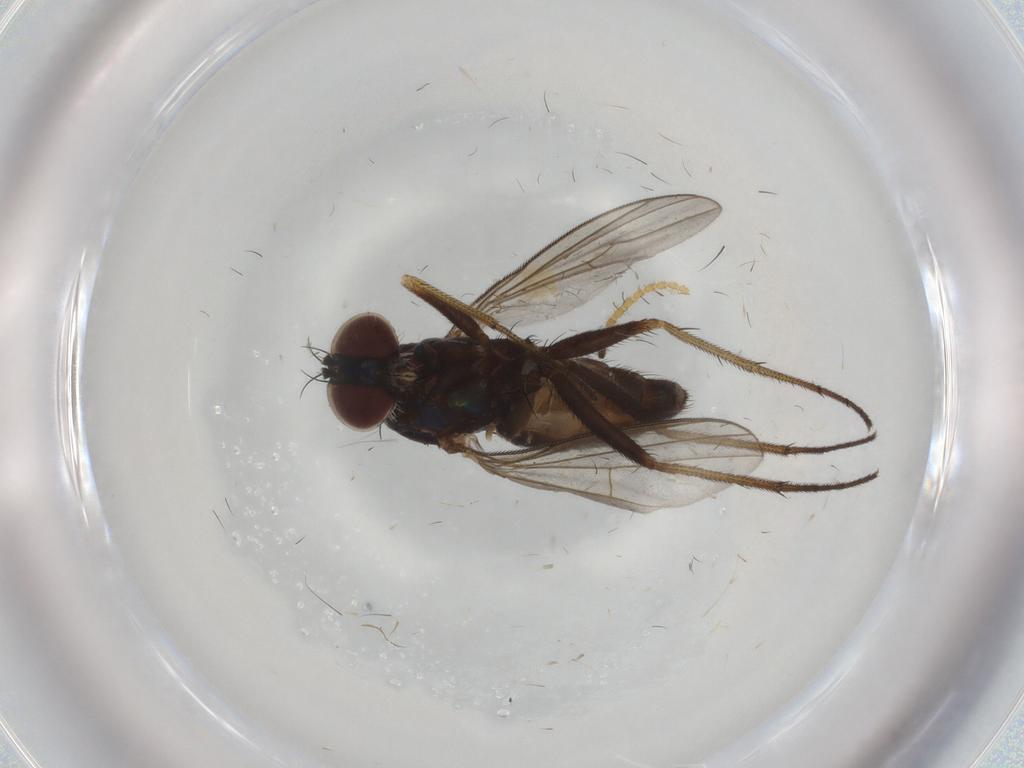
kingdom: Animalia
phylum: Arthropoda
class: Insecta
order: Diptera
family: Dolichopodidae
